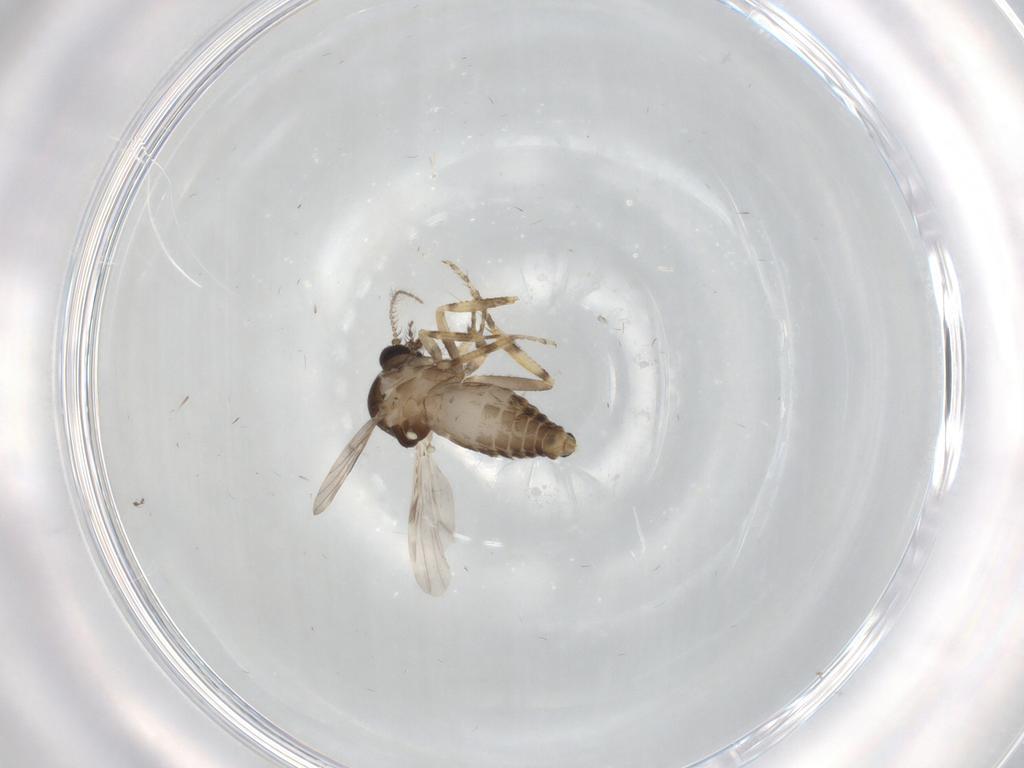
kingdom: Animalia
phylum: Arthropoda
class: Insecta
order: Diptera
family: Ceratopogonidae
